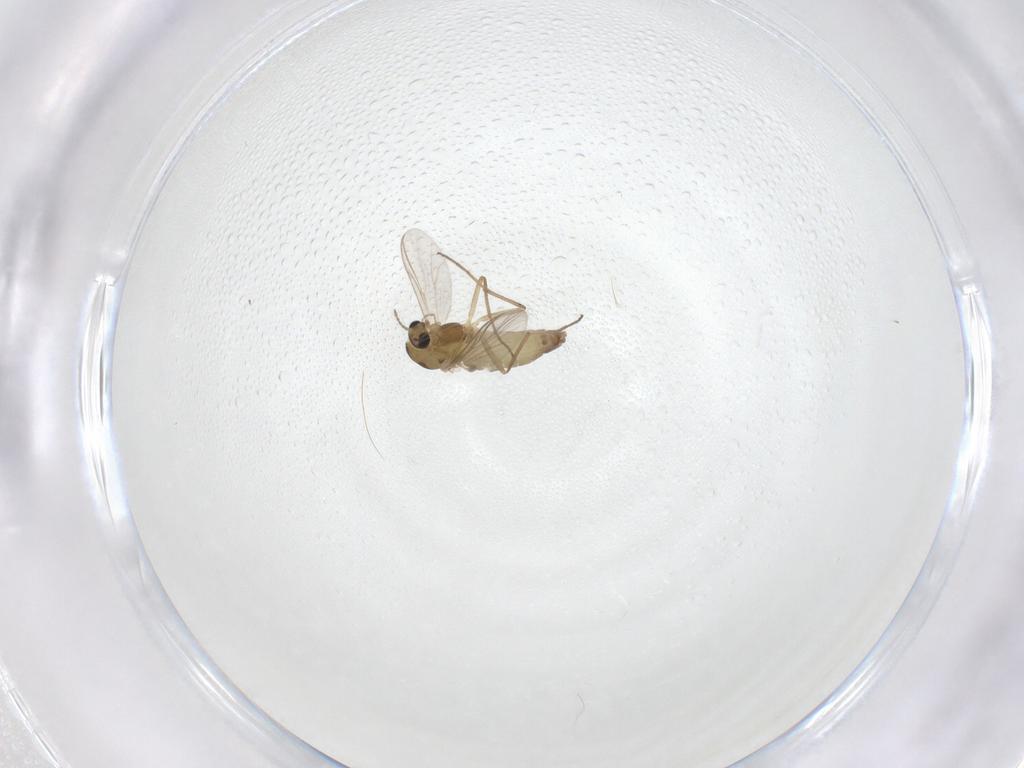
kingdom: Animalia
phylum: Arthropoda
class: Insecta
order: Diptera
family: Chironomidae
